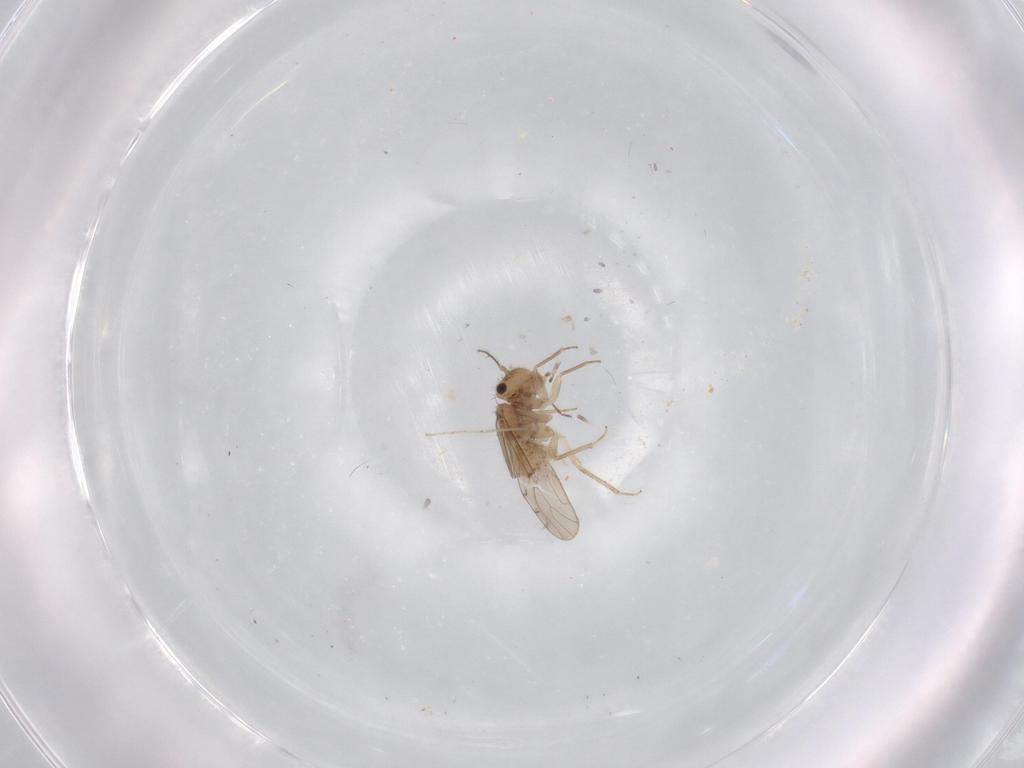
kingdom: Animalia
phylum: Arthropoda
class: Insecta
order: Psocodea
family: Ectopsocidae
